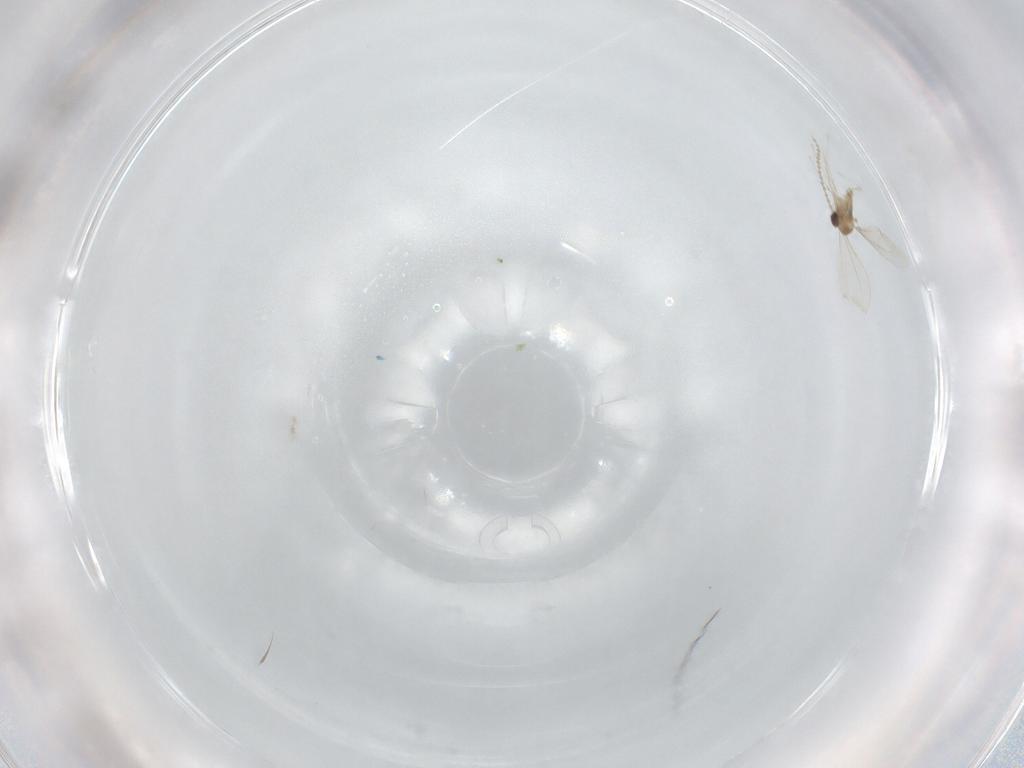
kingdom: Animalia
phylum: Arthropoda
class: Insecta
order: Diptera
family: Cecidomyiidae
